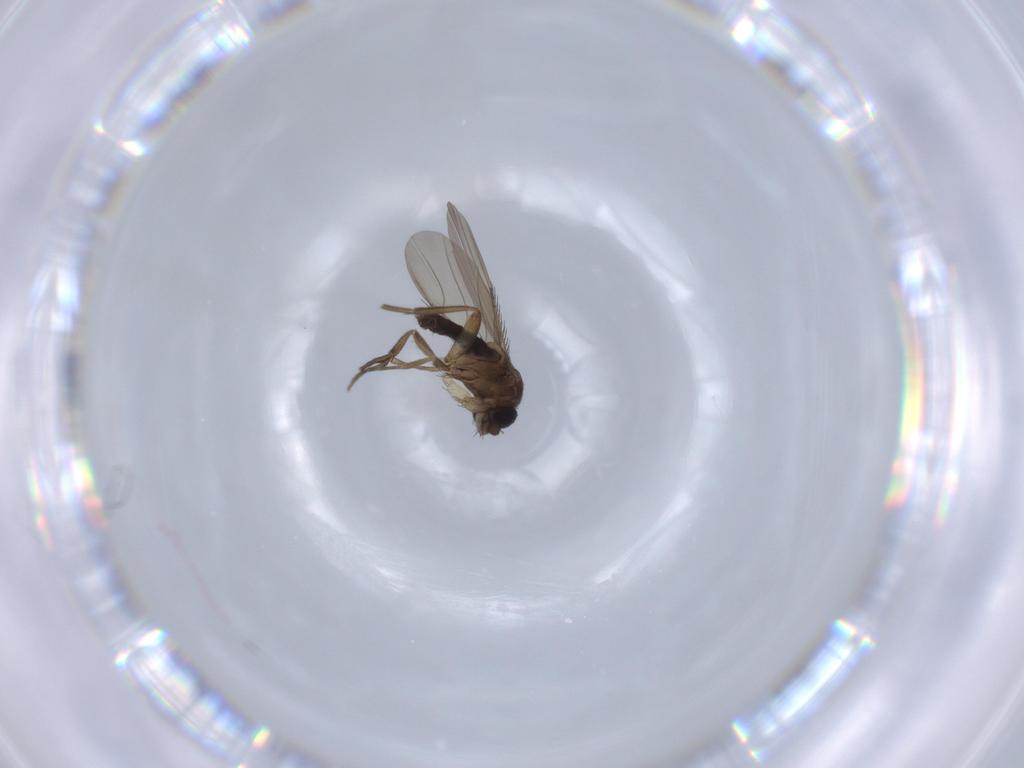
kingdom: Animalia
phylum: Arthropoda
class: Insecta
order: Diptera
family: Phoridae
